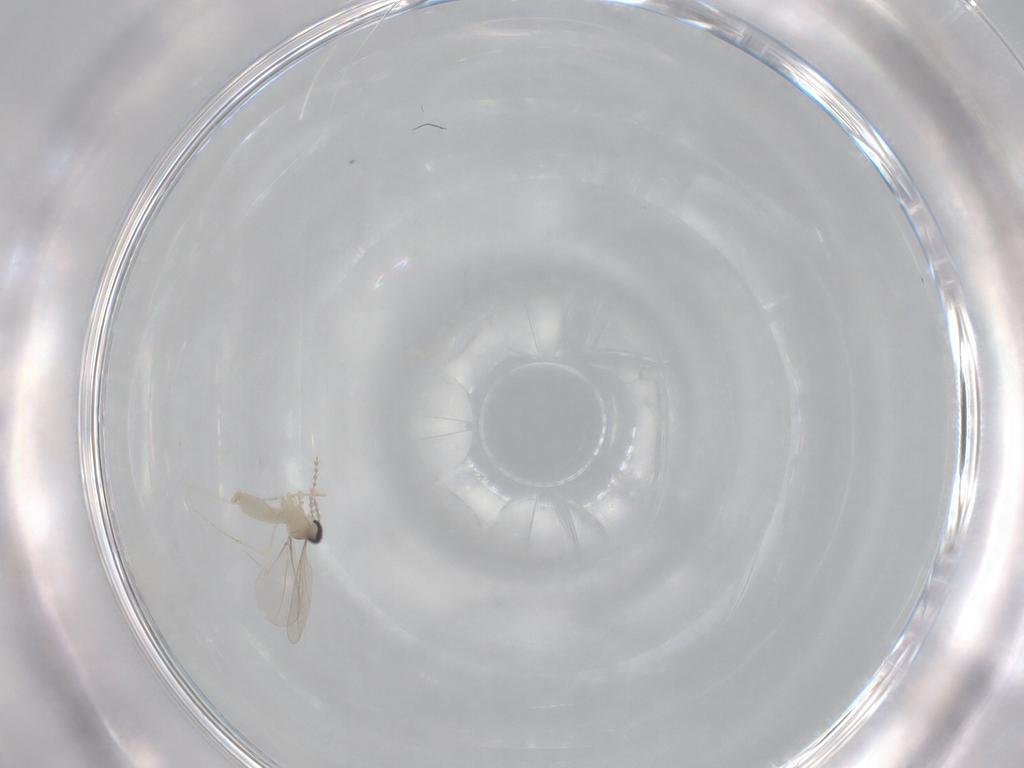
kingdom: Animalia
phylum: Arthropoda
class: Insecta
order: Diptera
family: Cecidomyiidae
